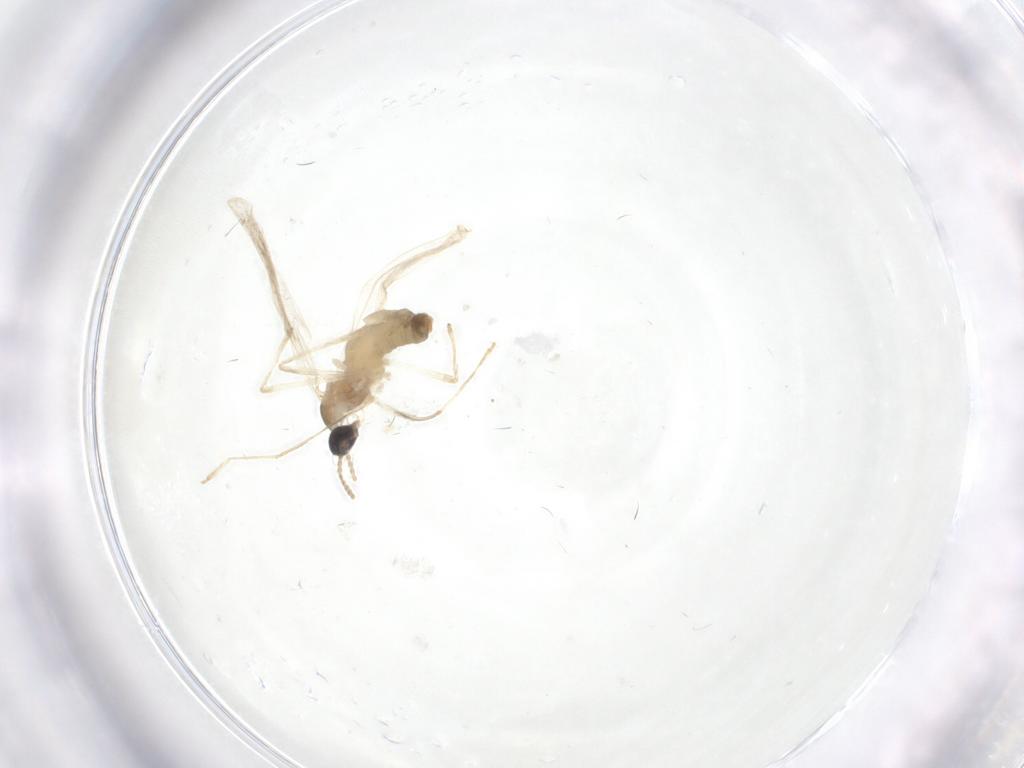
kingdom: Animalia
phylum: Arthropoda
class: Insecta
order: Diptera
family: Cecidomyiidae
